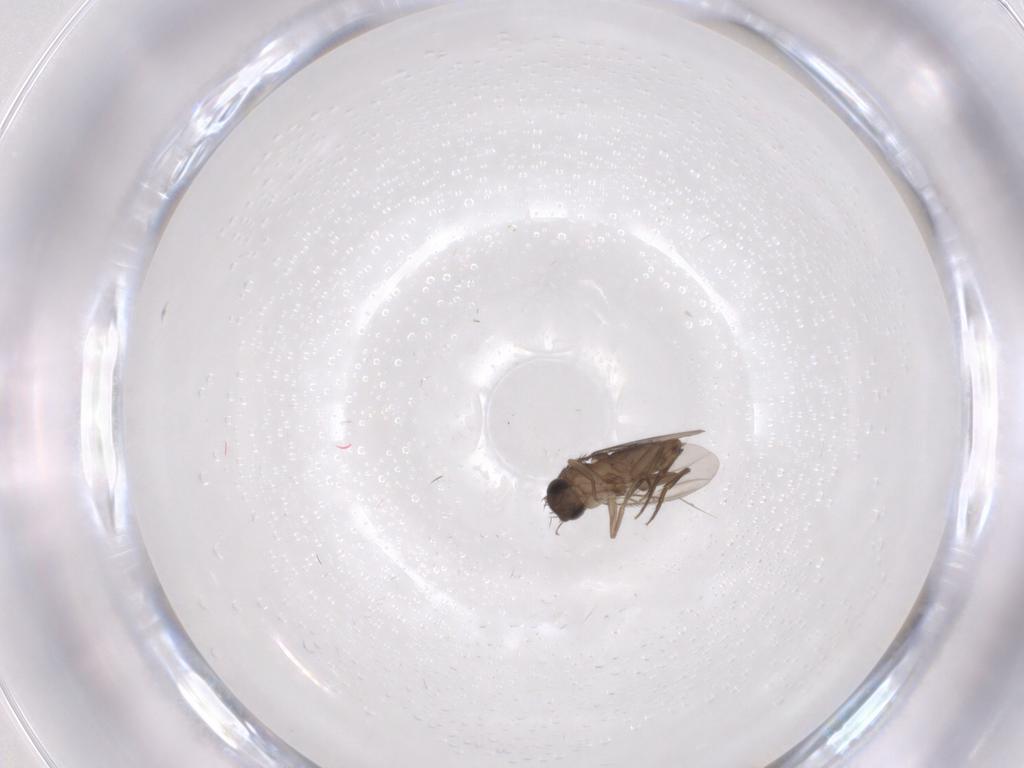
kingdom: Animalia
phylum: Arthropoda
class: Insecta
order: Diptera
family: Phoridae
